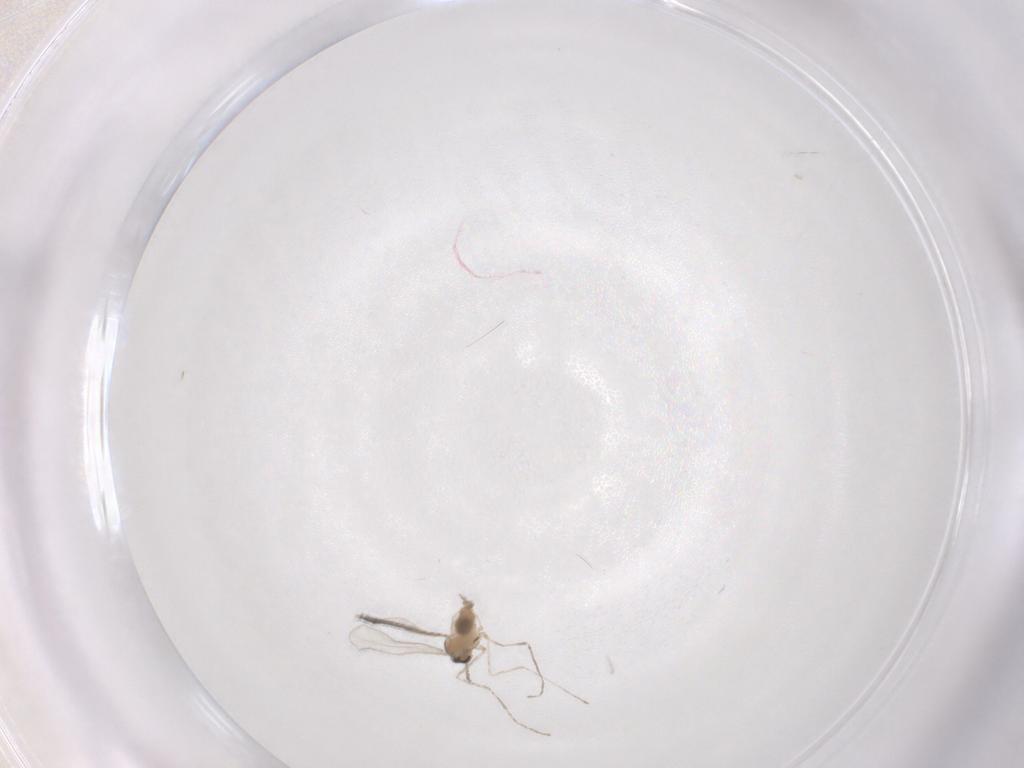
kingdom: Animalia
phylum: Arthropoda
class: Insecta
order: Diptera
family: Cecidomyiidae
